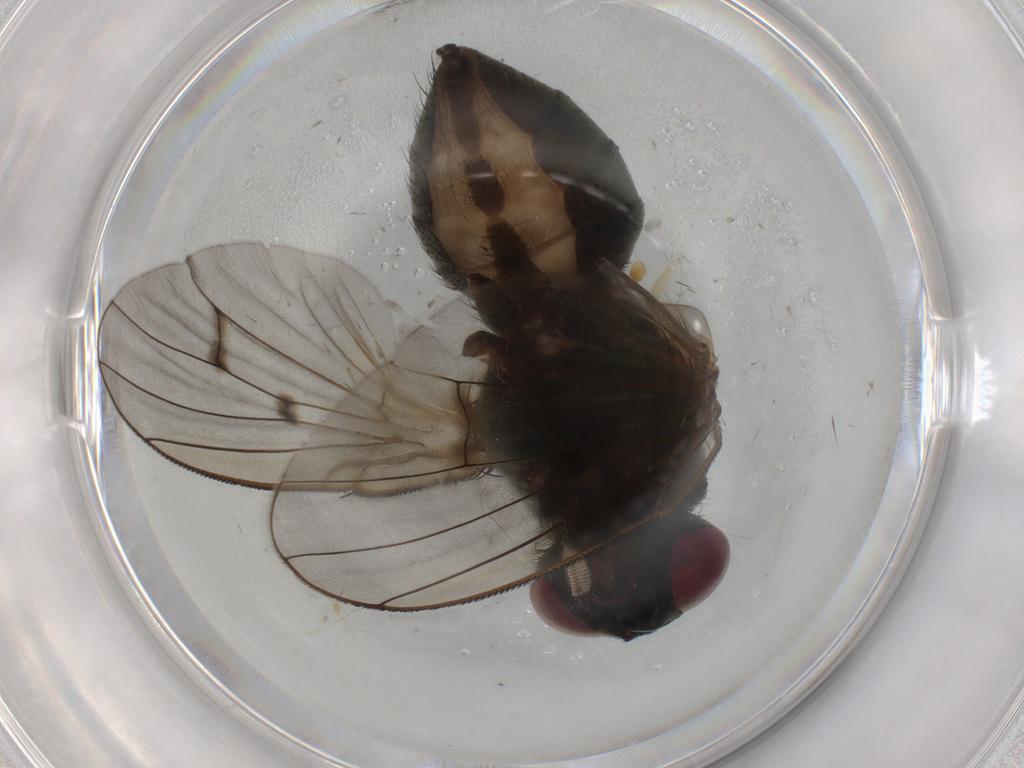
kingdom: Animalia
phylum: Arthropoda
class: Insecta
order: Diptera
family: Muscidae
